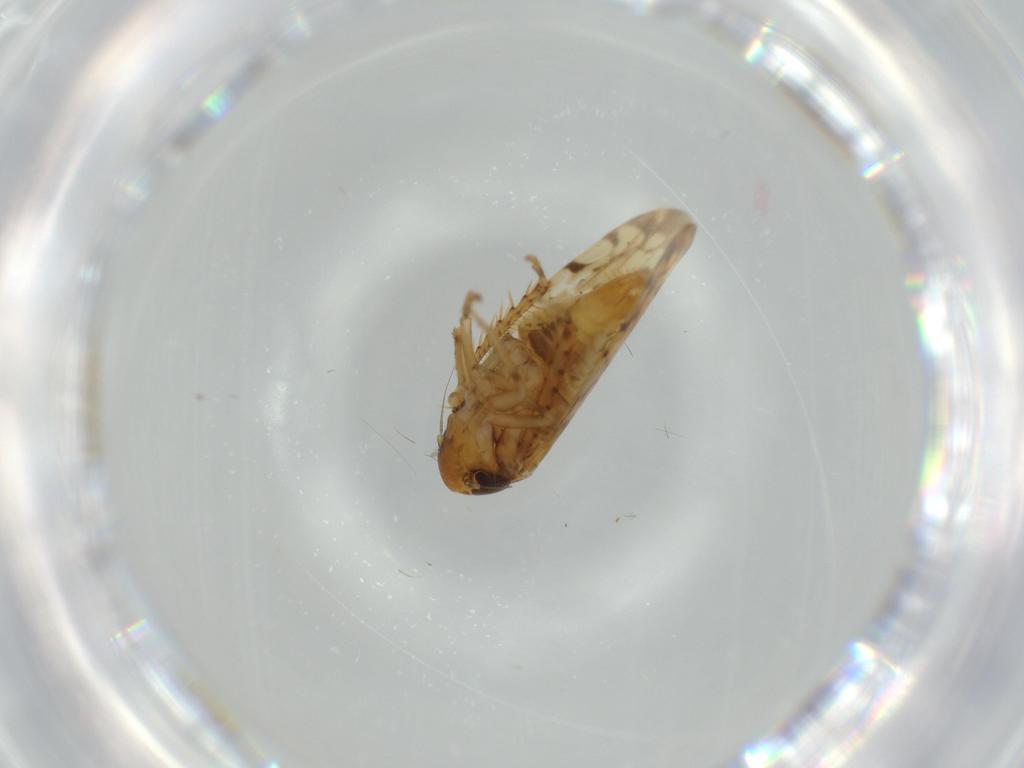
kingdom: Animalia
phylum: Arthropoda
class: Insecta
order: Hemiptera
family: Cicadellidae
